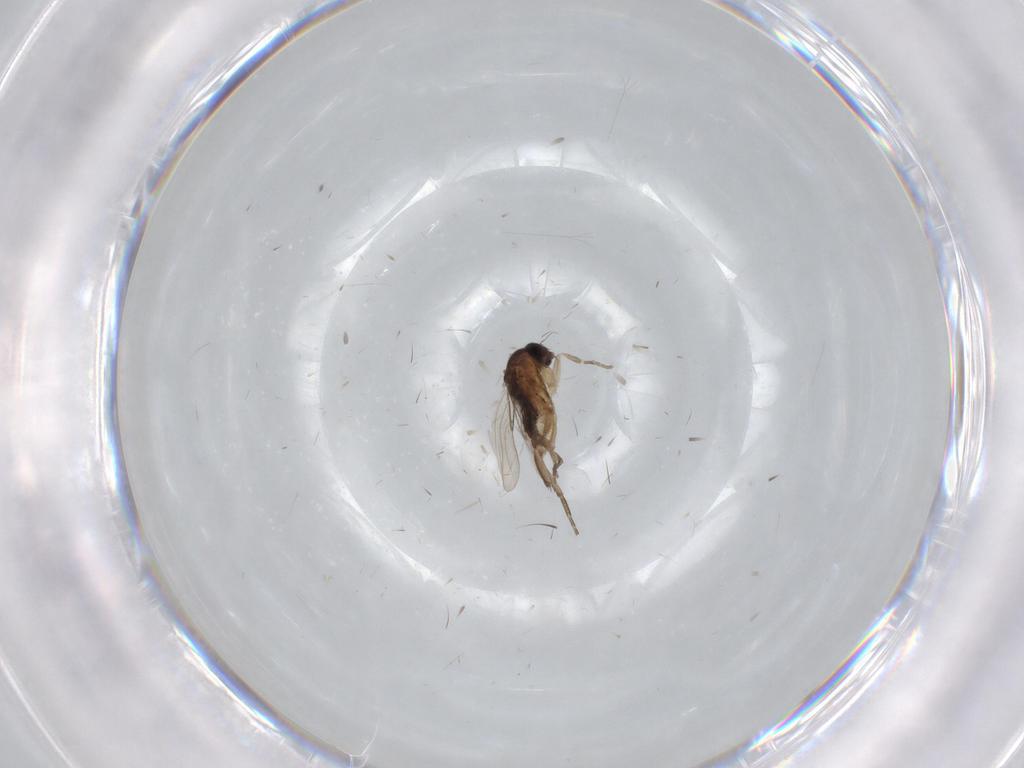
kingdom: Animalia
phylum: Arthropoda
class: Insecta
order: Diptera
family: Phoridae
